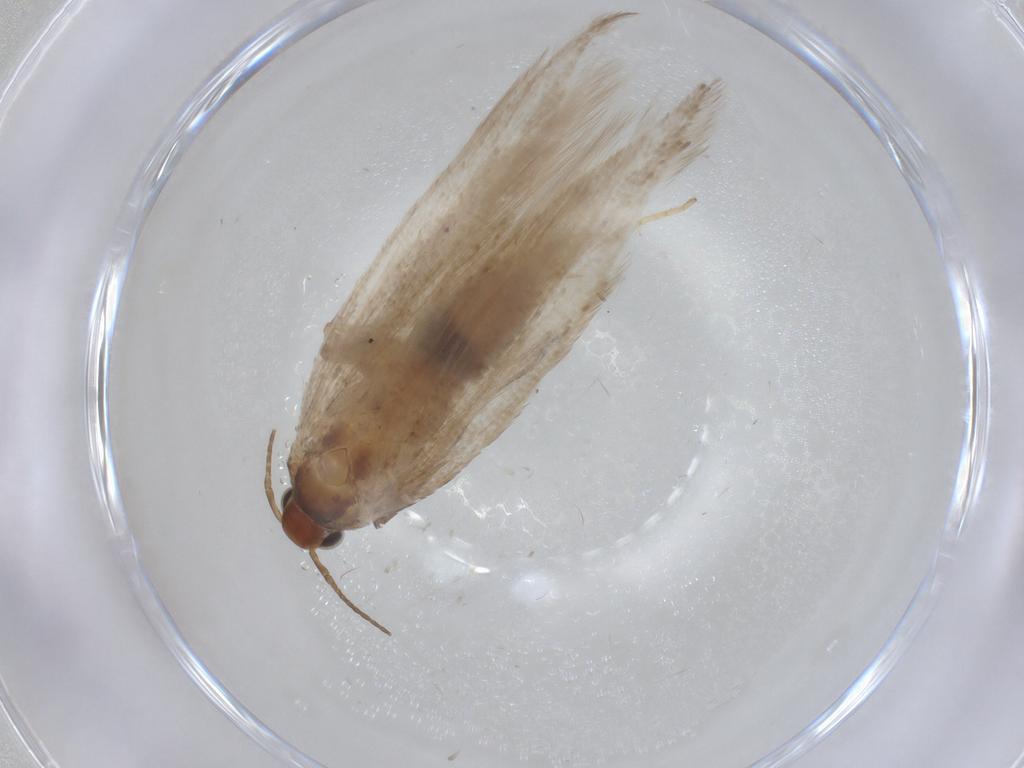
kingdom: Animalia
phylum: Arthropoda
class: Insecta
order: Lepidoptera
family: Gelechiidae
